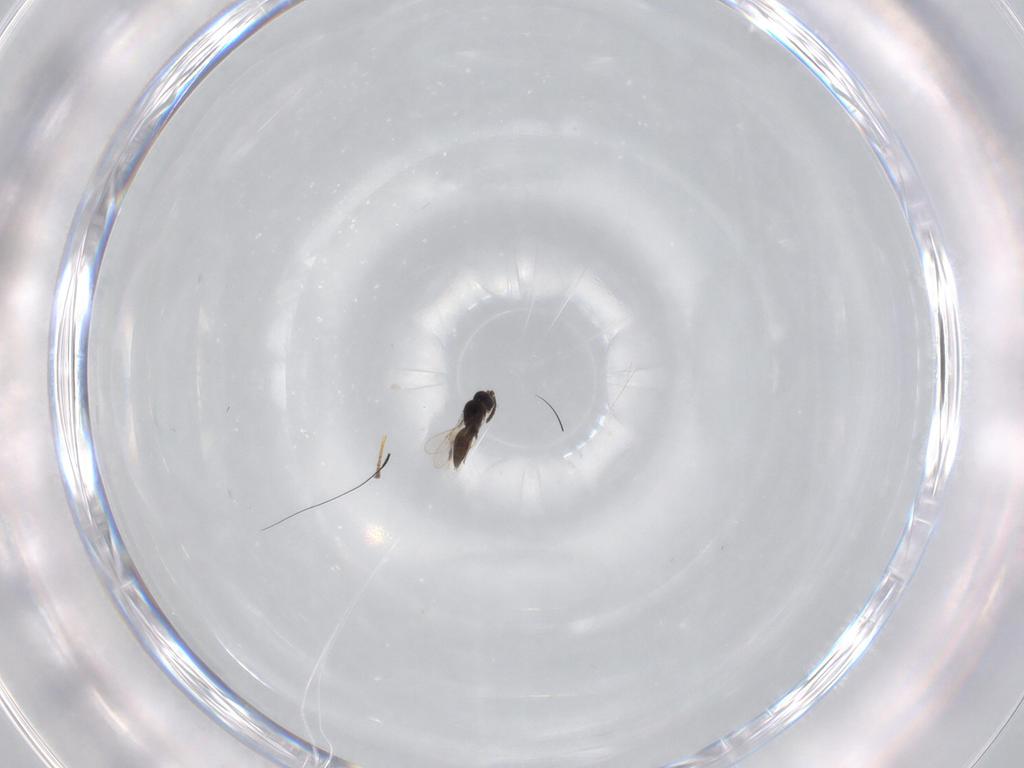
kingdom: Animalia
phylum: Arthropoda
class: Insecta
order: Hymenoptera
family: Scelionidae
